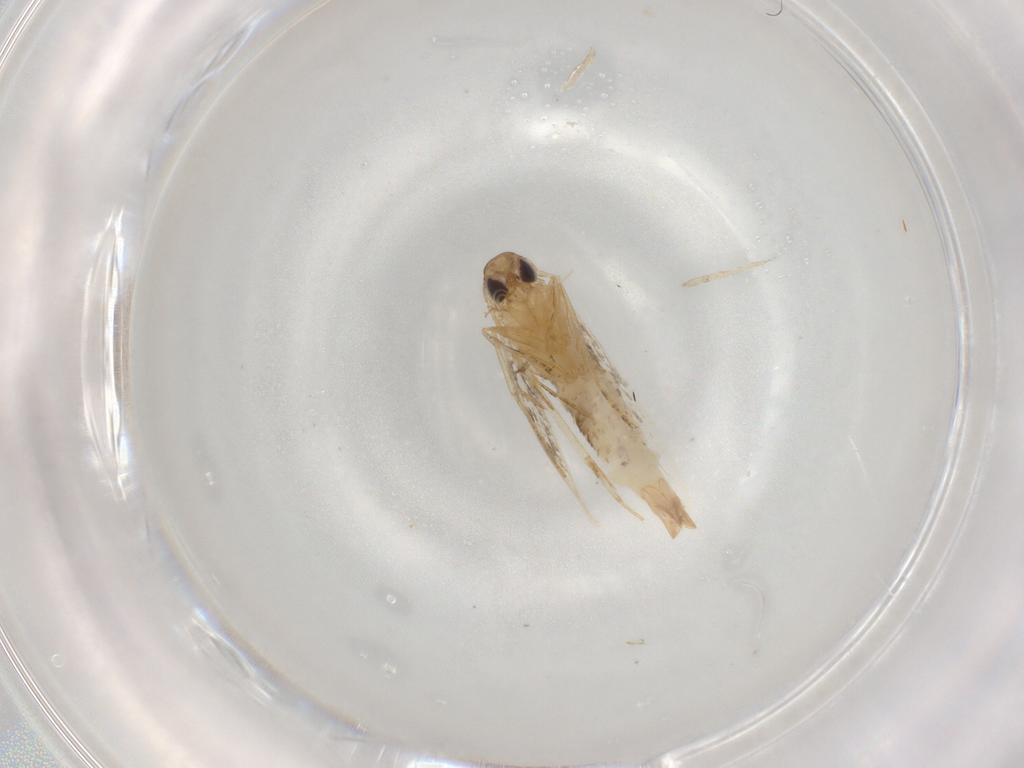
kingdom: Animalia
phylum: Arthropoda
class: Insecta
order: Lepidoptera
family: Crambidae
